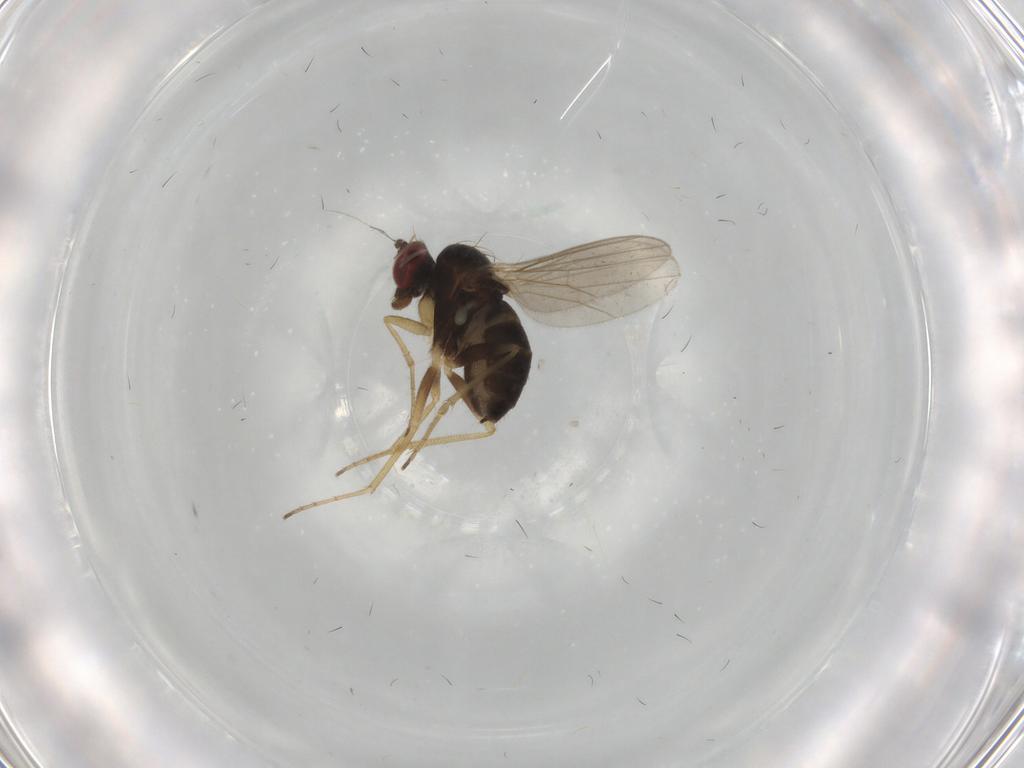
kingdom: Animalia
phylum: Arthropoda
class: Insecta
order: Diptera
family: Dolichopodidae
